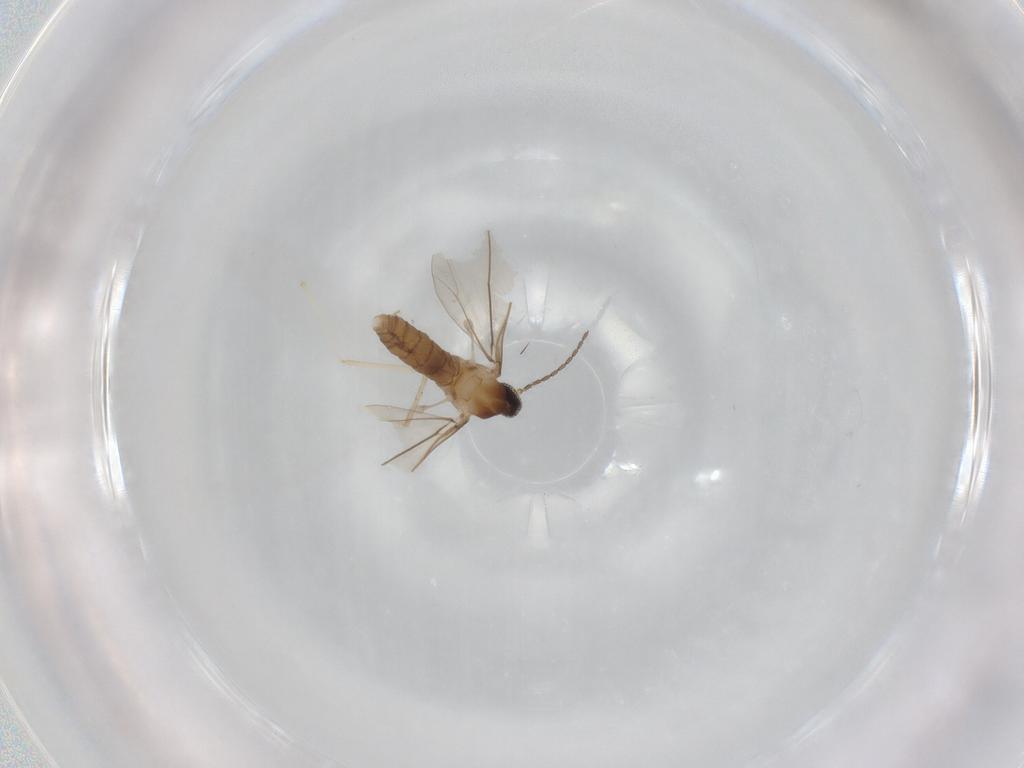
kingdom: Animalia
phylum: Arthropoda
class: Insecta
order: Diptera
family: Cecidomyiidae
